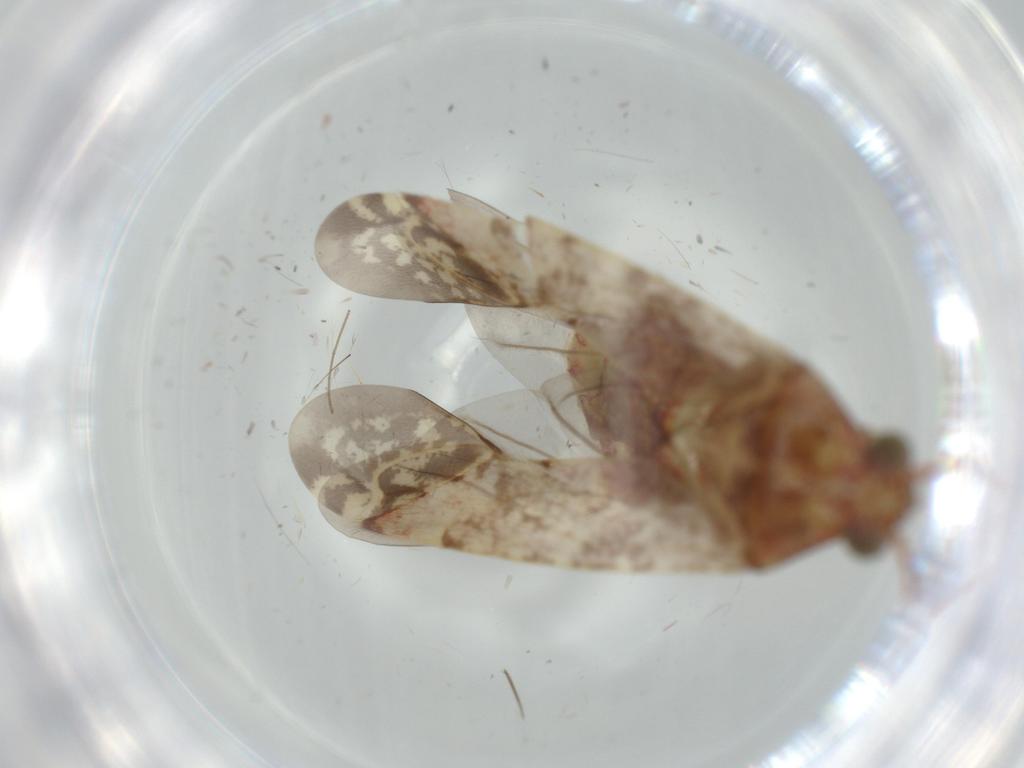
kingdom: Animalia
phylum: Arthropoda
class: Insecta
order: Hemiptera
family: Miridae
